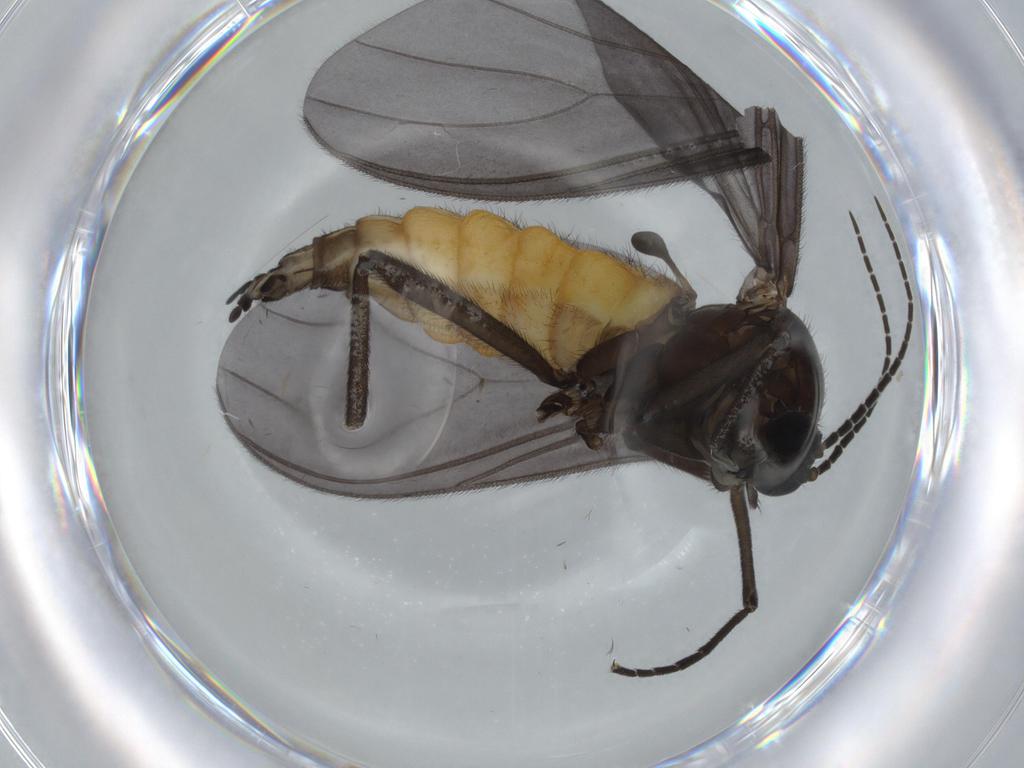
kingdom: Animalia
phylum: Arthropoda
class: Insecta
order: Diptera
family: Sciaridae
